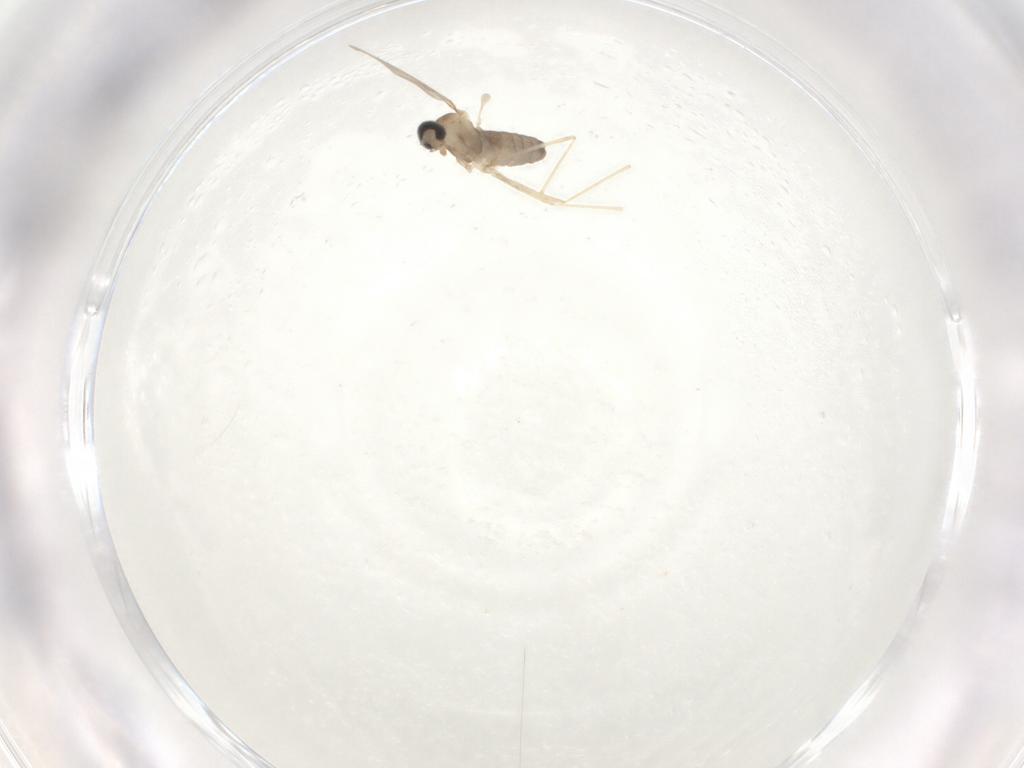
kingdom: Animalia
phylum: Arthropoda
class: Insecta
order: Diptera
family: Cecidomyiidae
